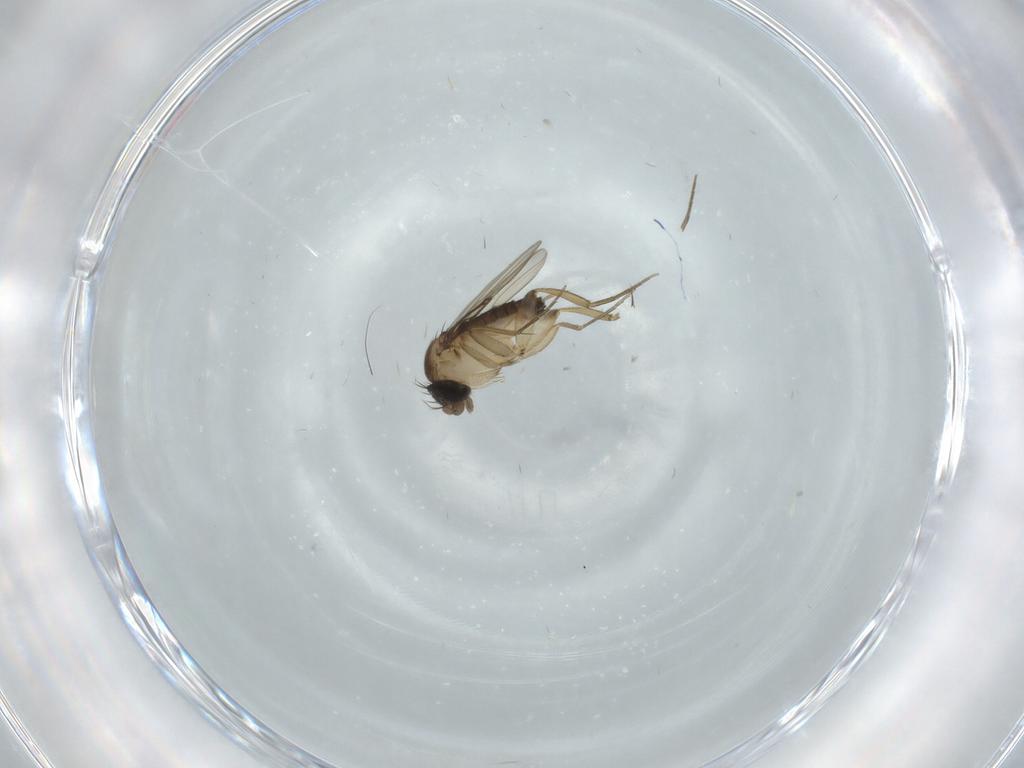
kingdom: Animalia
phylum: Arthropoda
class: Insecta
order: Diptera
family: Phoridae
